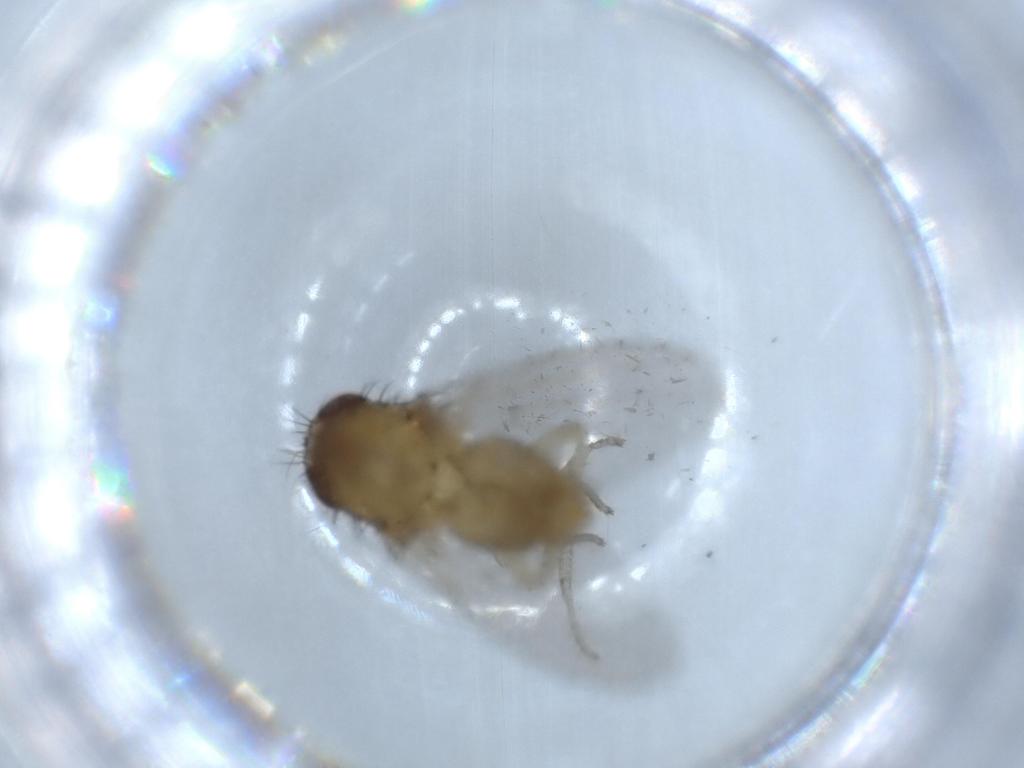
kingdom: Animalia
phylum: Arthropoda
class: Insecta
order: Diptera
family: Lauxaniidae
